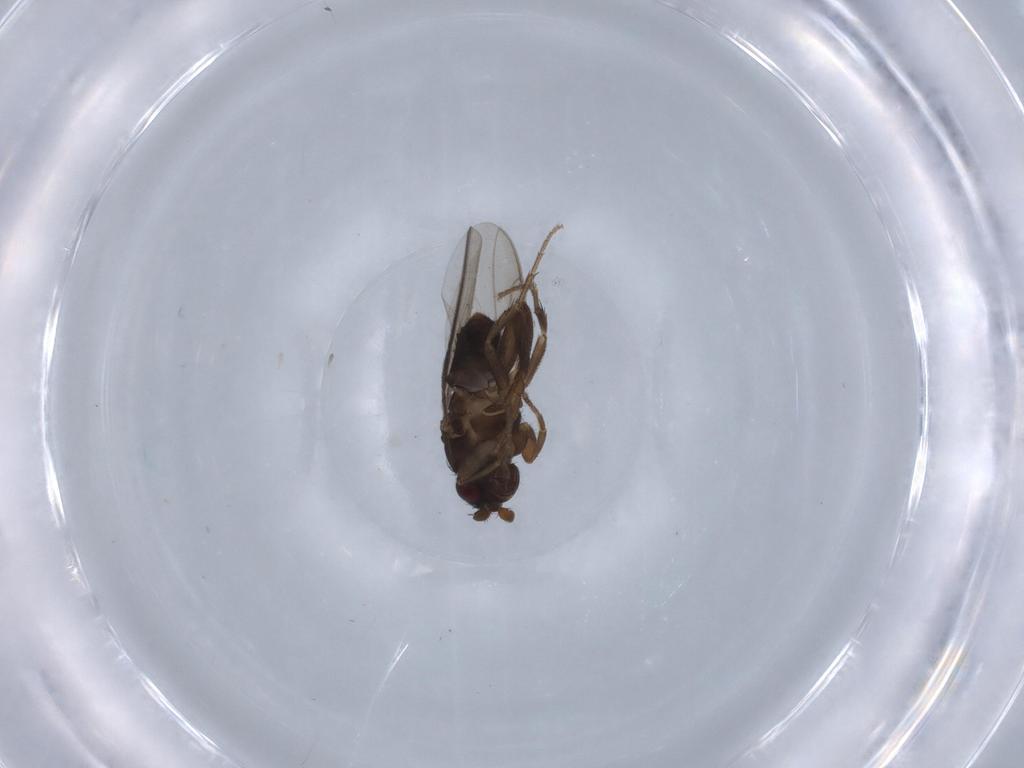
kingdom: Animalia
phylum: Arthropoda
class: Insecta
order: Diptera
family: Sphaeroceridae
